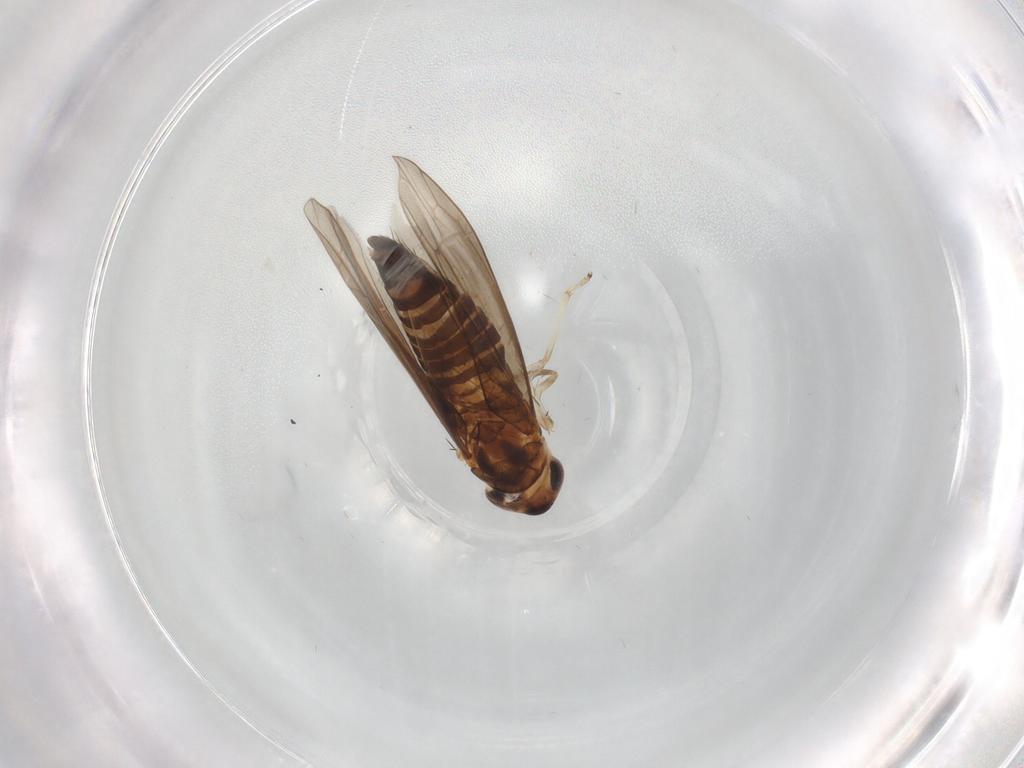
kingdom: Animalia
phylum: Arthropoda
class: Insecta
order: Hemiptera
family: Cicadellidae
